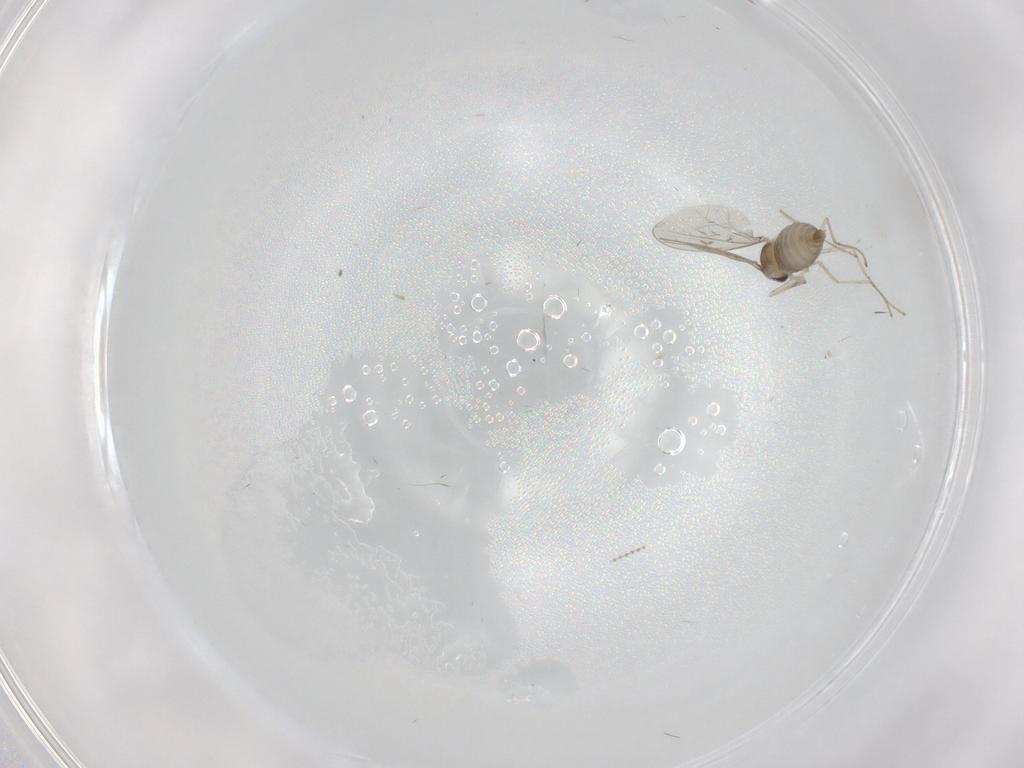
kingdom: Animalia
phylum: Arthropoda
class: Insecta
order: Diptera
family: Cecidomyiidae
